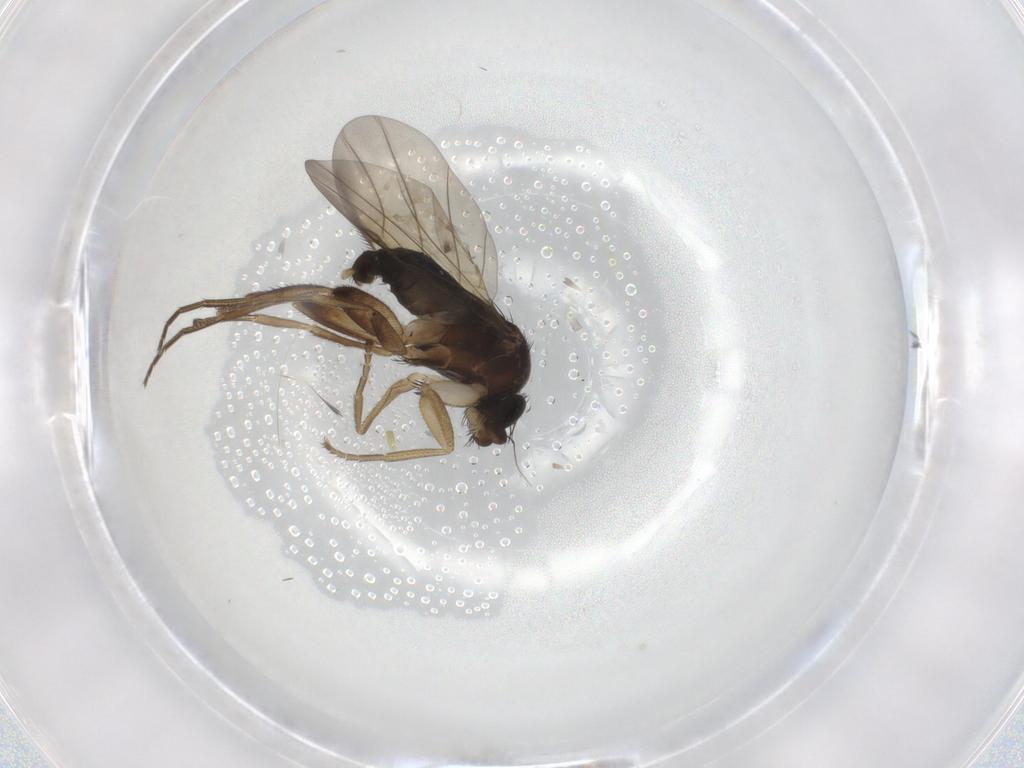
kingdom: Animalia
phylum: Arthropoda
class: Insecta
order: Diptera
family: Phoridae
